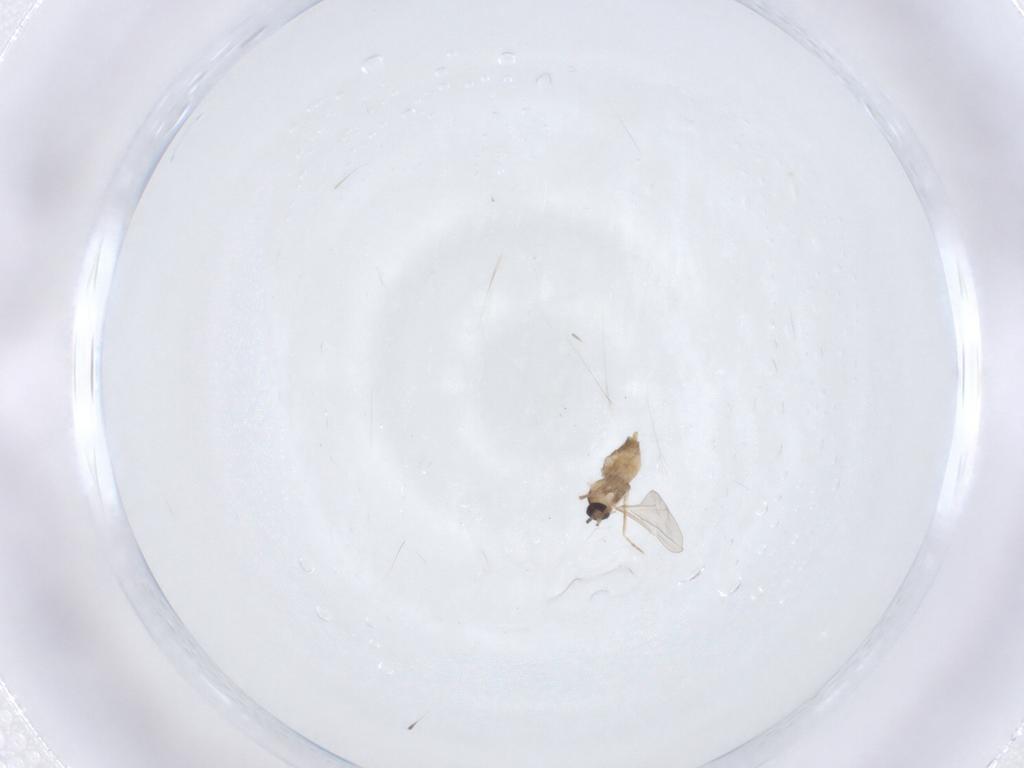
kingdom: Animalia
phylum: Arthropoda
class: Insecta
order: Diptera
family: Cecidomyiidae
